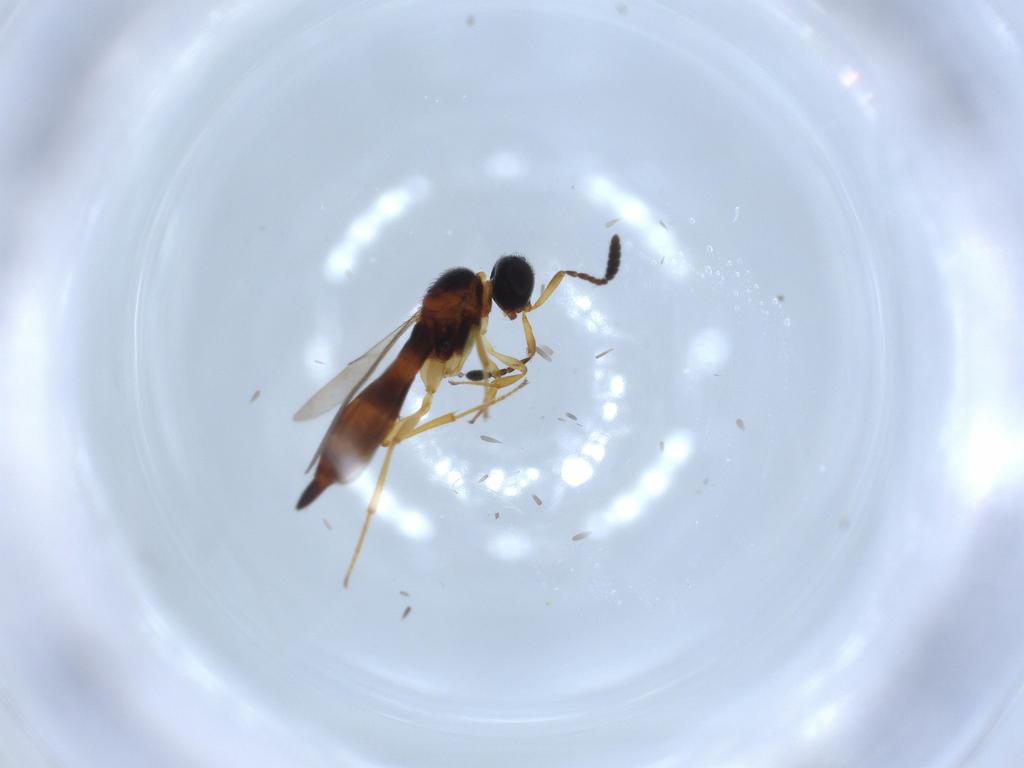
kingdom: Animalia
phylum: Arthropoda
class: Insecta
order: Hymenoptera
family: Scelionidae
